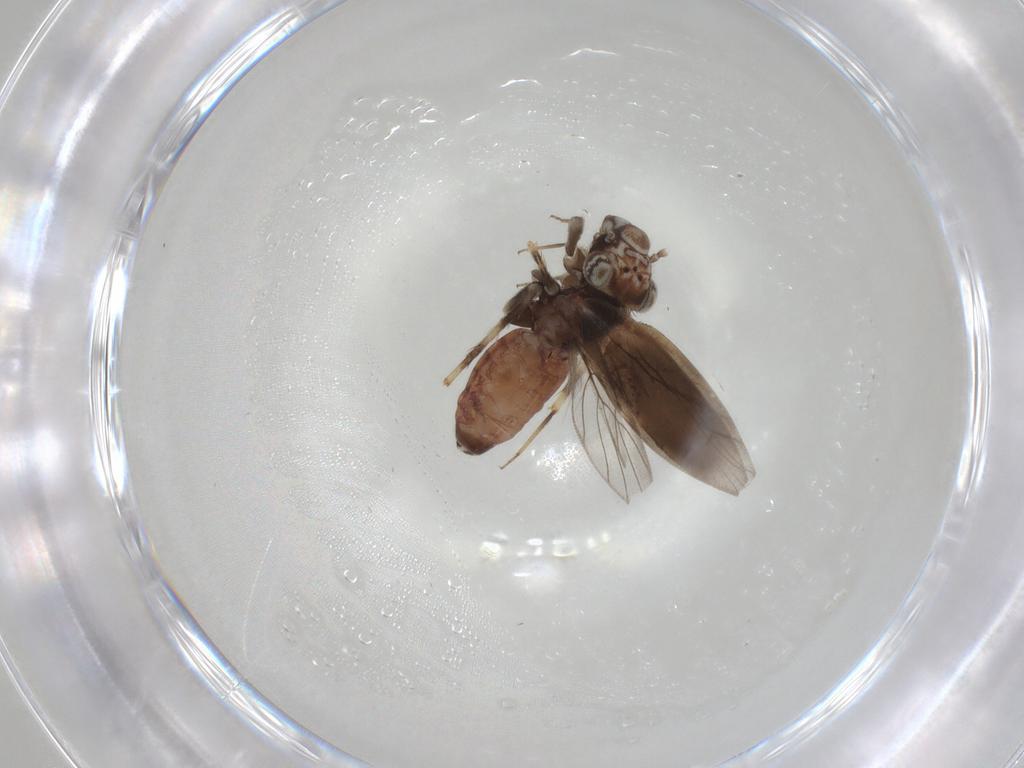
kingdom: Animalia
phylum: Arthropoda
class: Insecta
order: Psocodea
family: Lepidopsocidae
